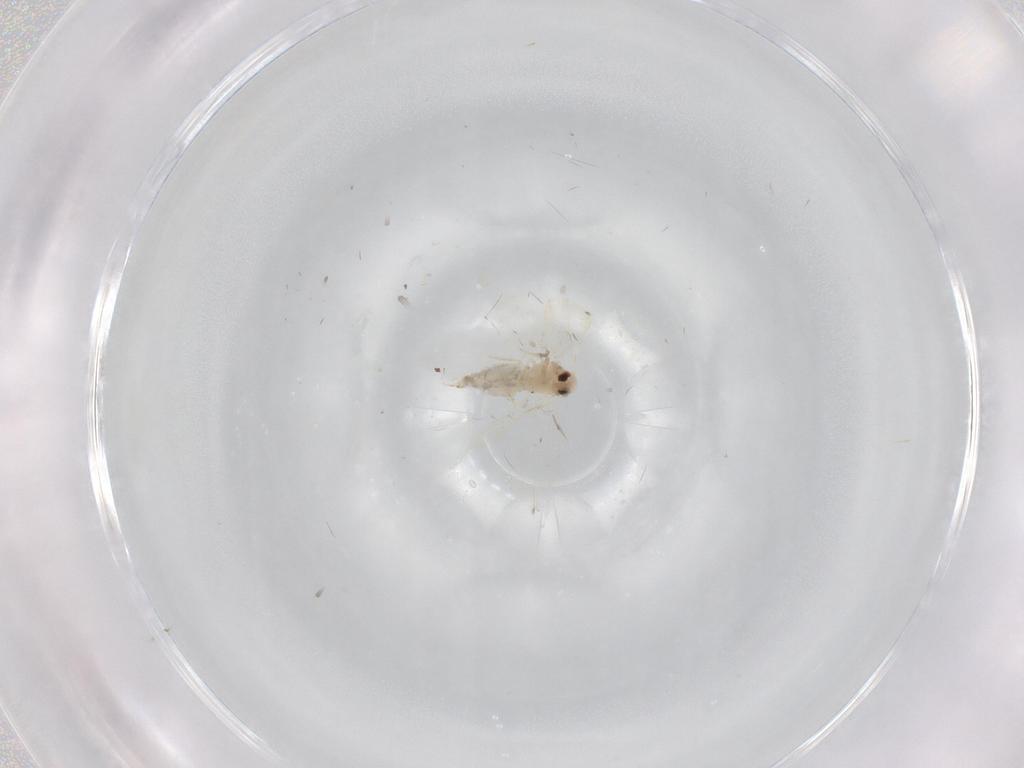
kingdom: Animalia
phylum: Arthropoda
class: Insecta
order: Hemiptera
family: Aleyrodidae
